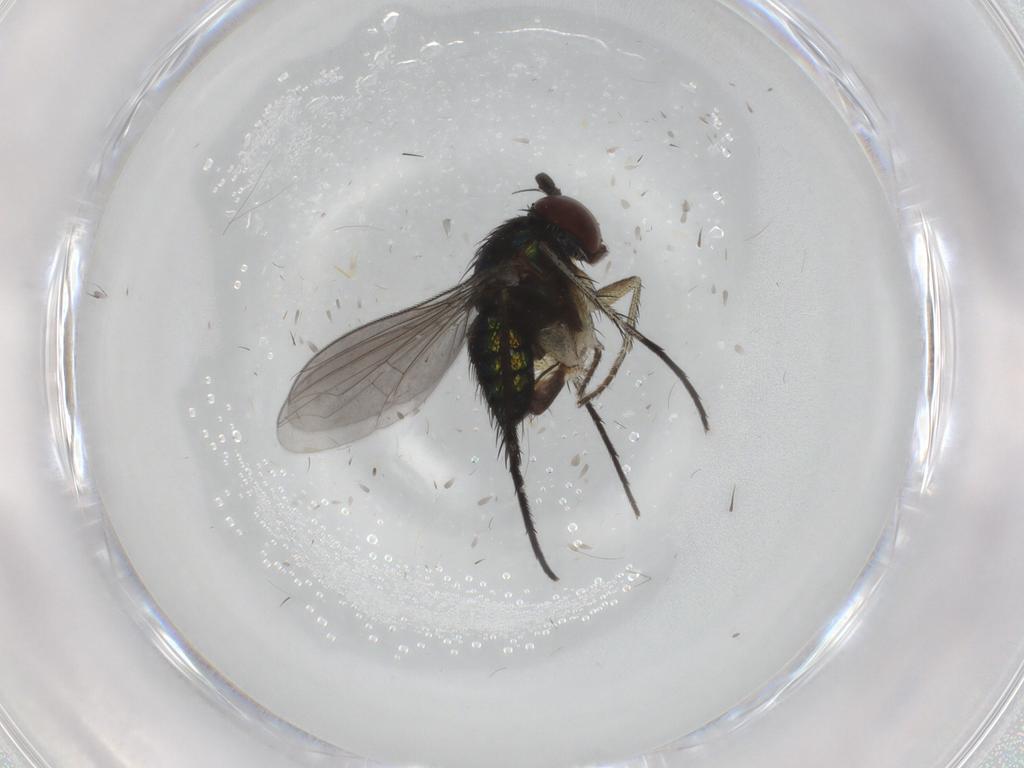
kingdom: Animalia
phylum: Arthropoda
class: Insecta
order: Diptera
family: Dolichopodidae
